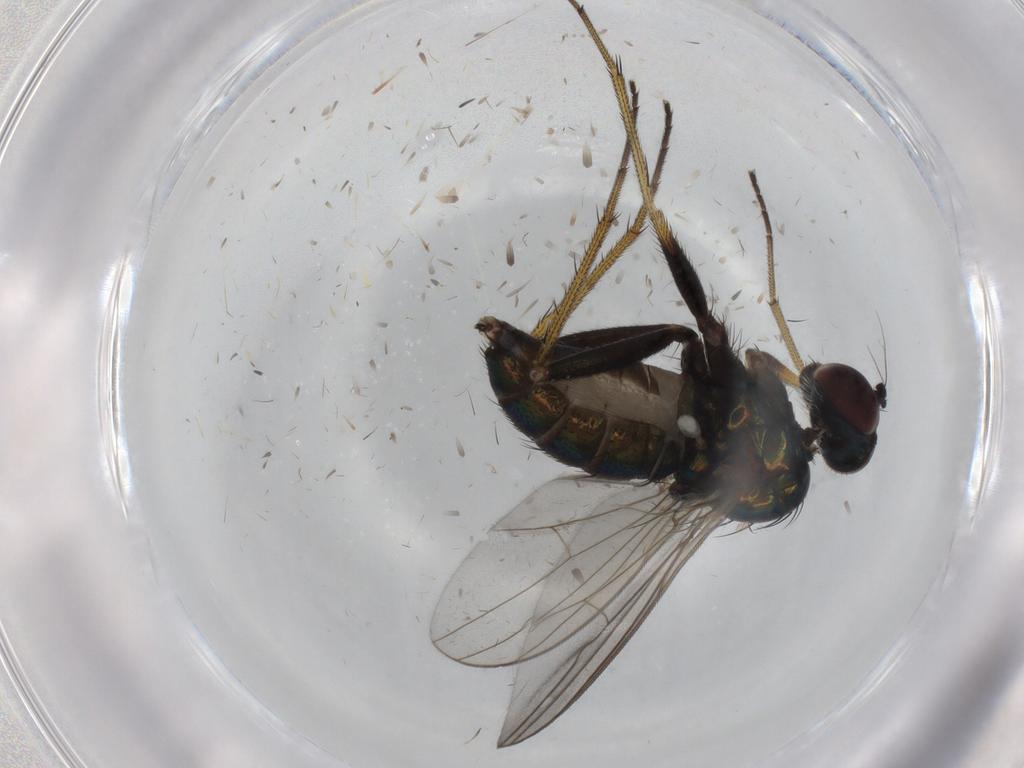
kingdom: Animalia
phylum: Arthropoda
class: Insecta
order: Diptera
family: Dolichopodidae
